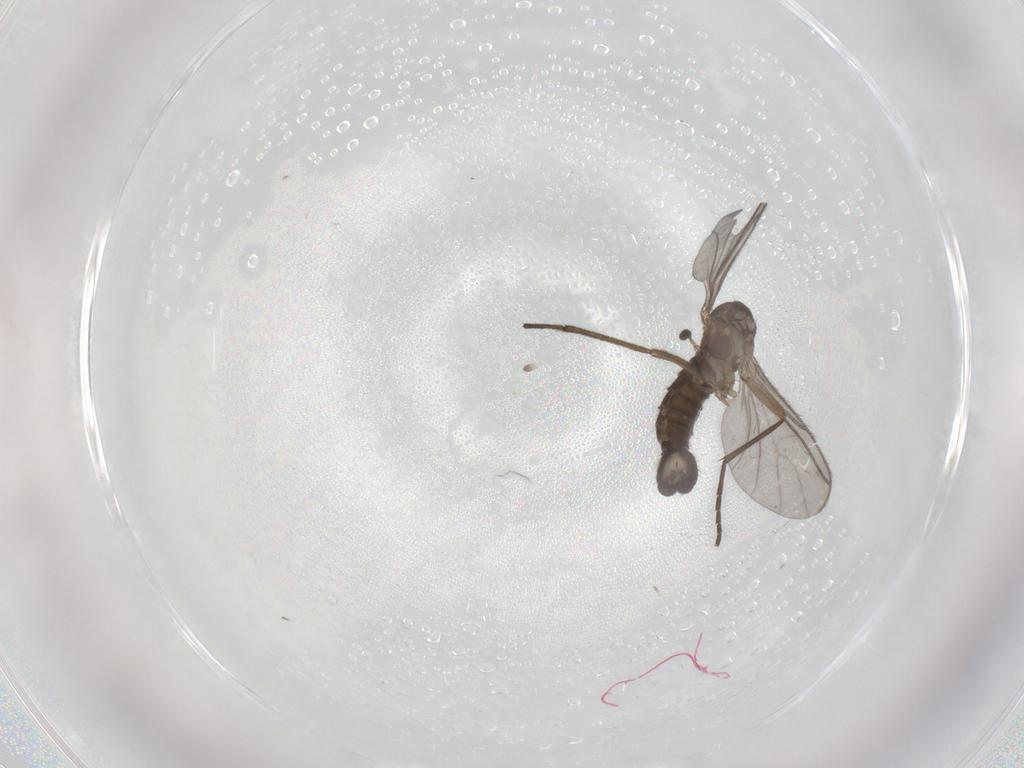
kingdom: Animalia
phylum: Arthropoda
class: Insecta
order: Diptera
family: Sciaridae
